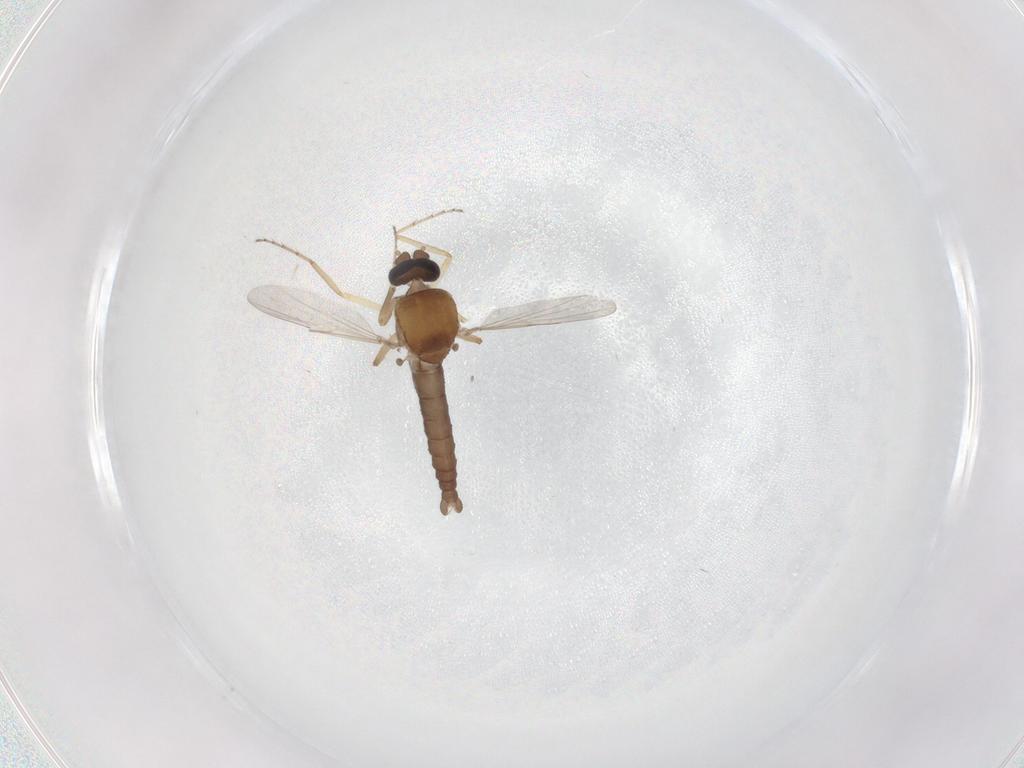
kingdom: Animalia
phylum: Arthropoda
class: Insecta
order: Diptera
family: Ceratopogonidae
